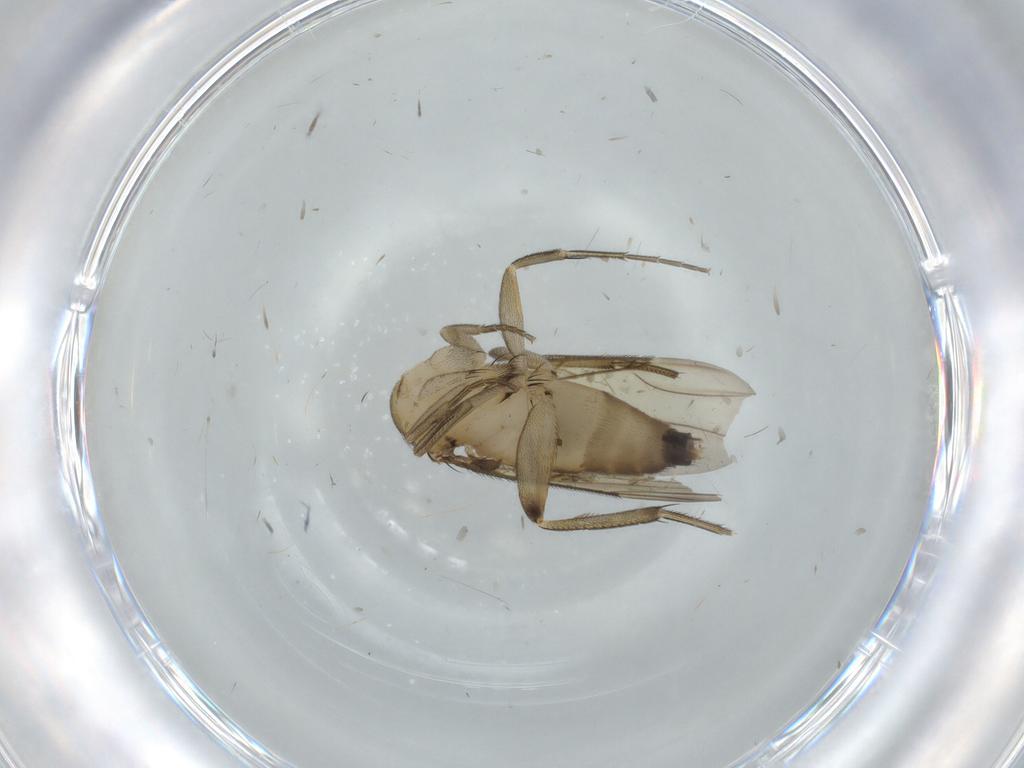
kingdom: Animalia
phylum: Arthropoda
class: Insecta
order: Diptera
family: Phoridae
